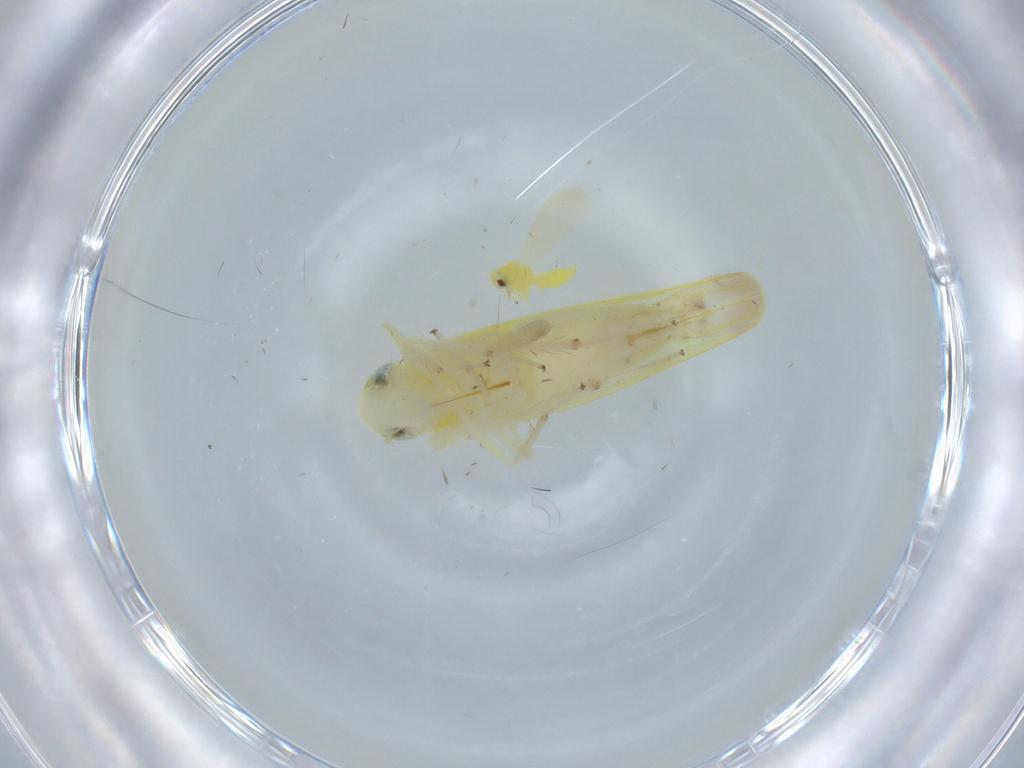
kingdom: Animalia
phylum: Arthropoda
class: Insecta
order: Hemiptera
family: Aleyrodidae
